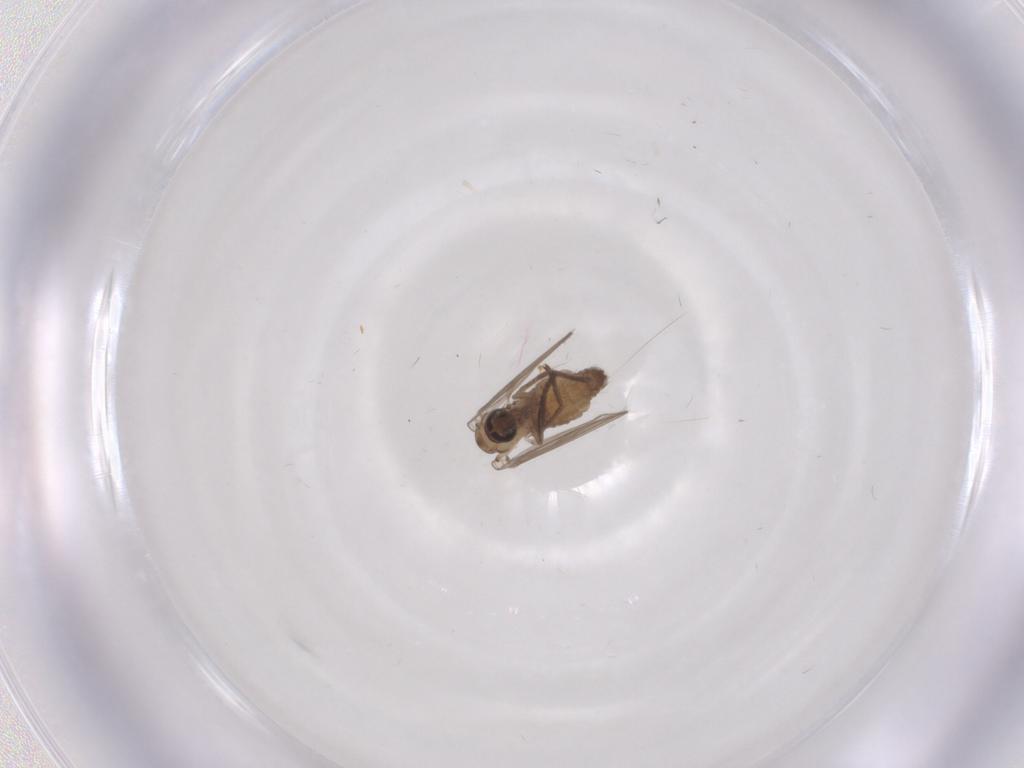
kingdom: Animalia
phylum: Arthropoda
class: Insecta
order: Diptera
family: Psychodidae
